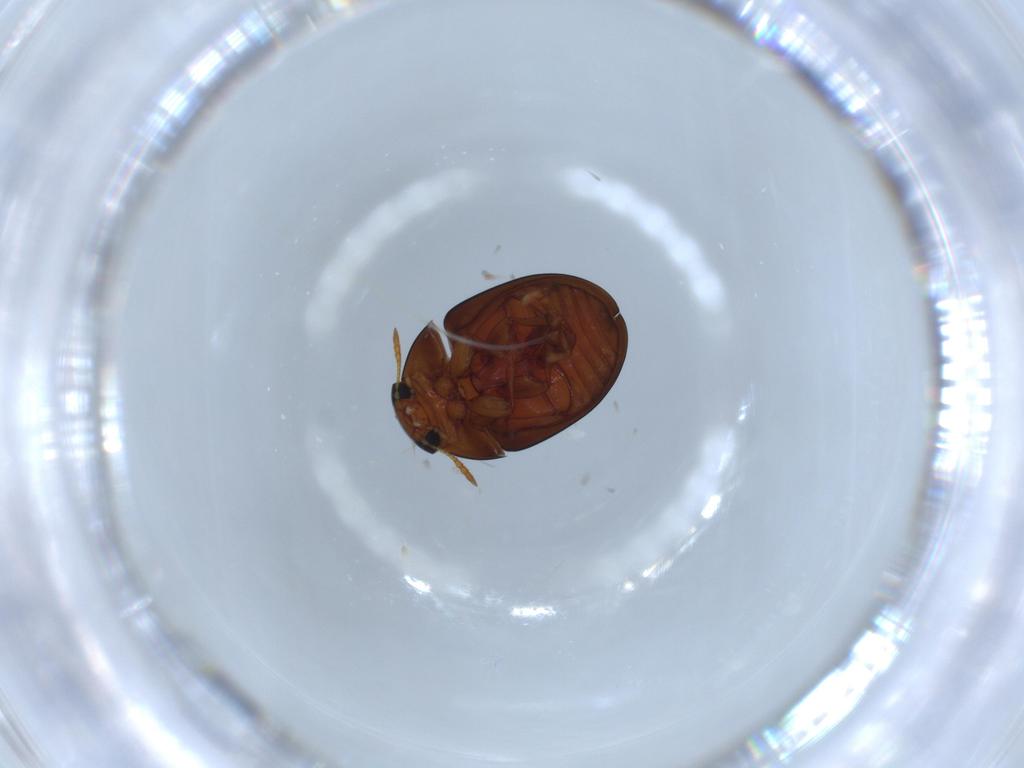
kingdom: Animalia
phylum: Arthropoda
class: Insecta
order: Coleoptera
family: Phalacridae
